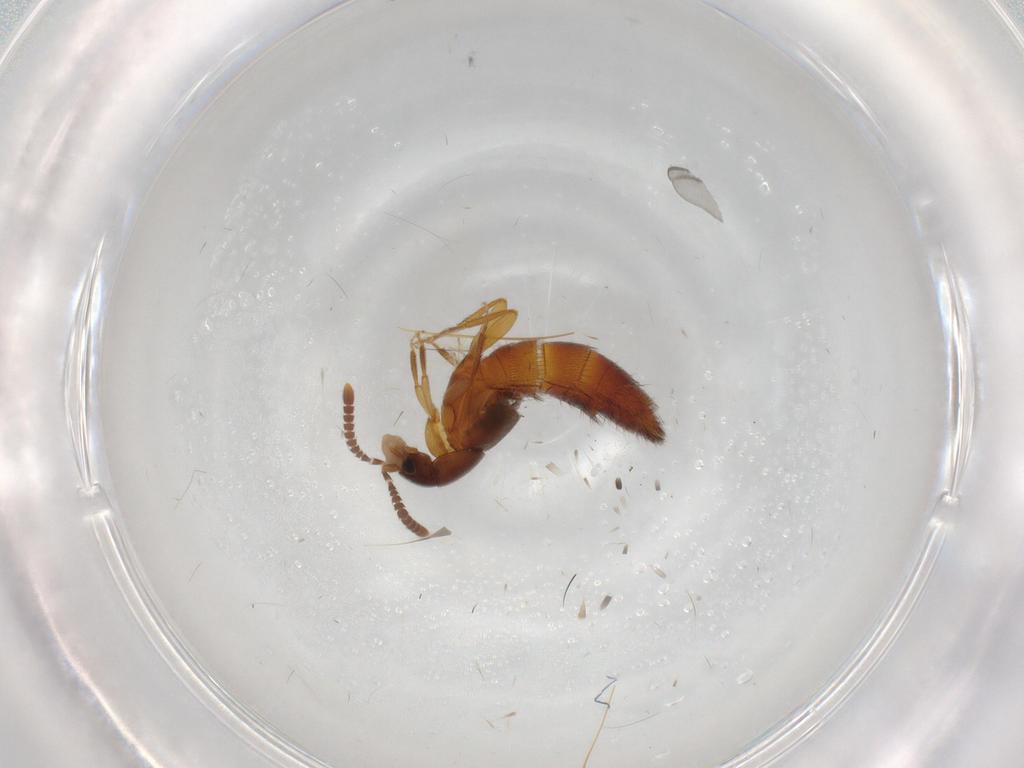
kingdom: Animalia
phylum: Arthropoda
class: Insecta
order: Coleoptera
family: Staphylinidae
